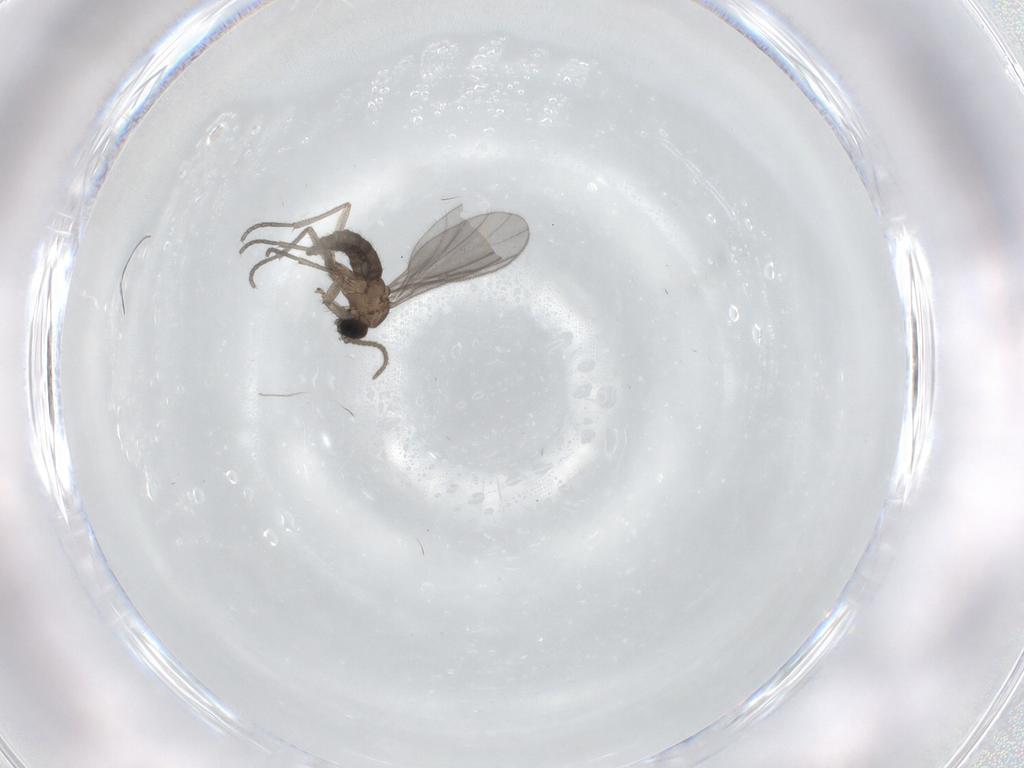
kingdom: Animalia
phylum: Arthropoda
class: Insecta
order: Diptera
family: Sciaridae
